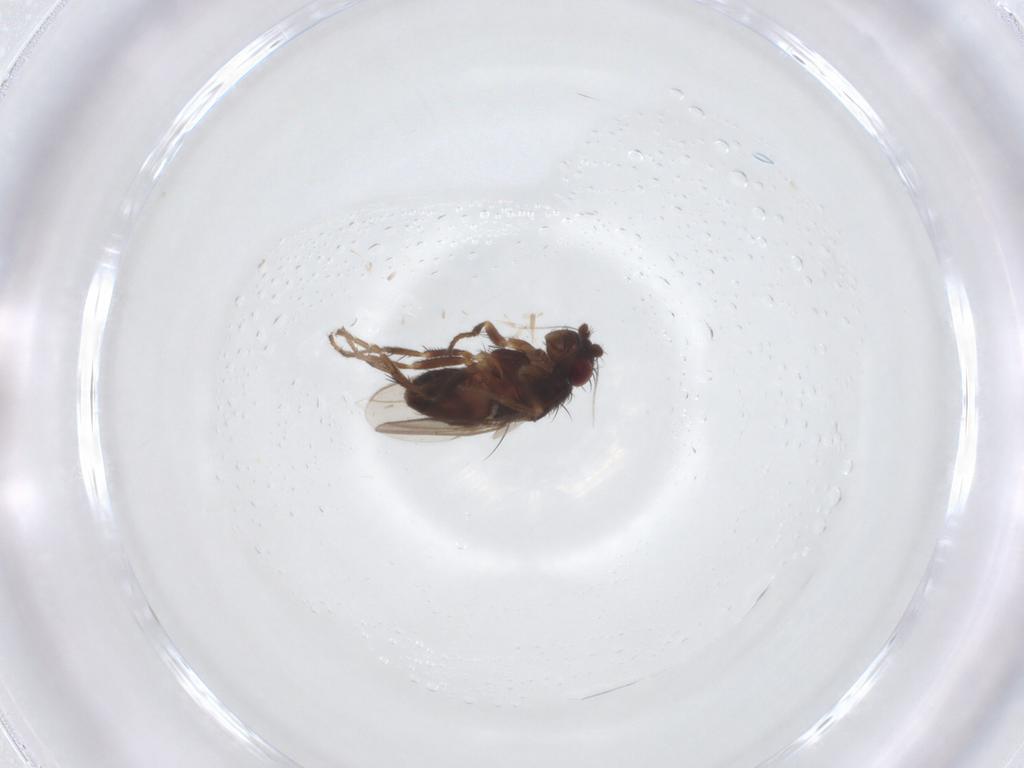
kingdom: Animalia
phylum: Arthropoda
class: Insecta
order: Diptera
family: Chironomidae
